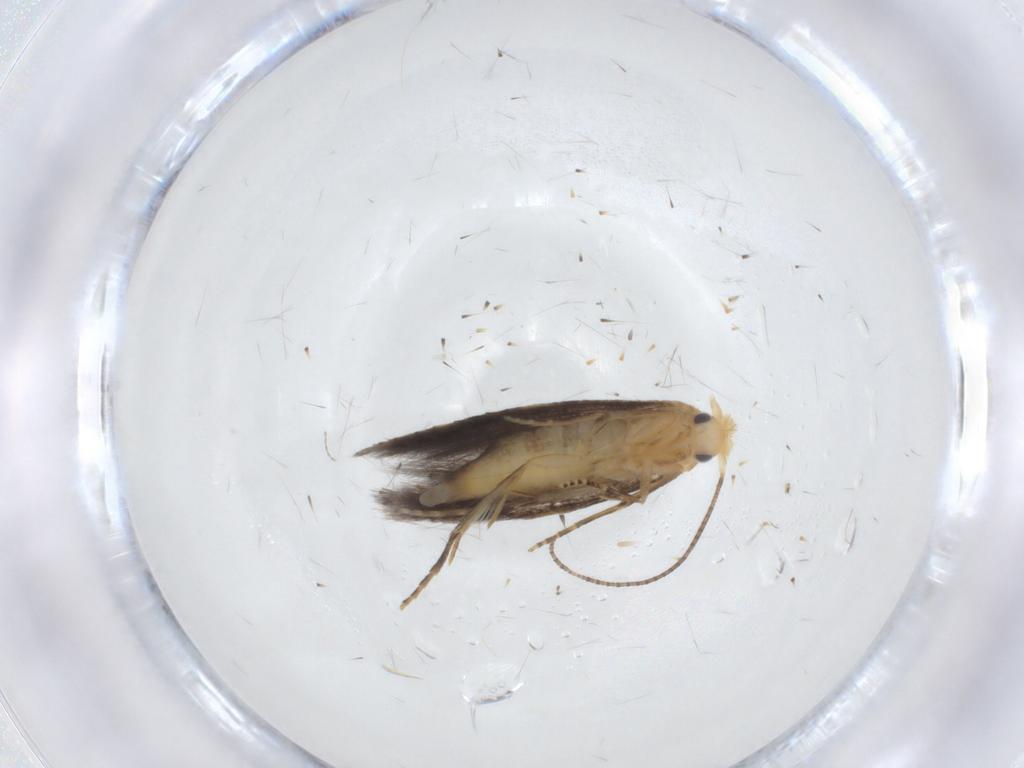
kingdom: Animalia
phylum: Arthropoda
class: Insecta
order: Lepidoptera
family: Bucculatricidae
